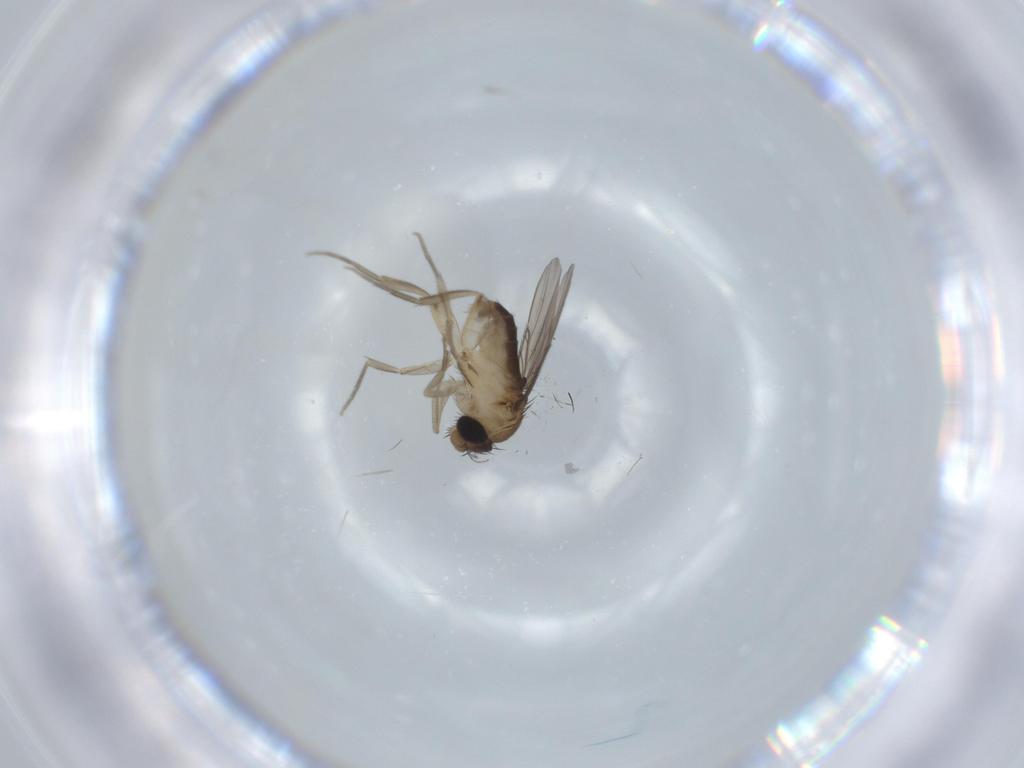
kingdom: Animalia
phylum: Arthropoda
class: Insecta
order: Diptera
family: Phoridae
